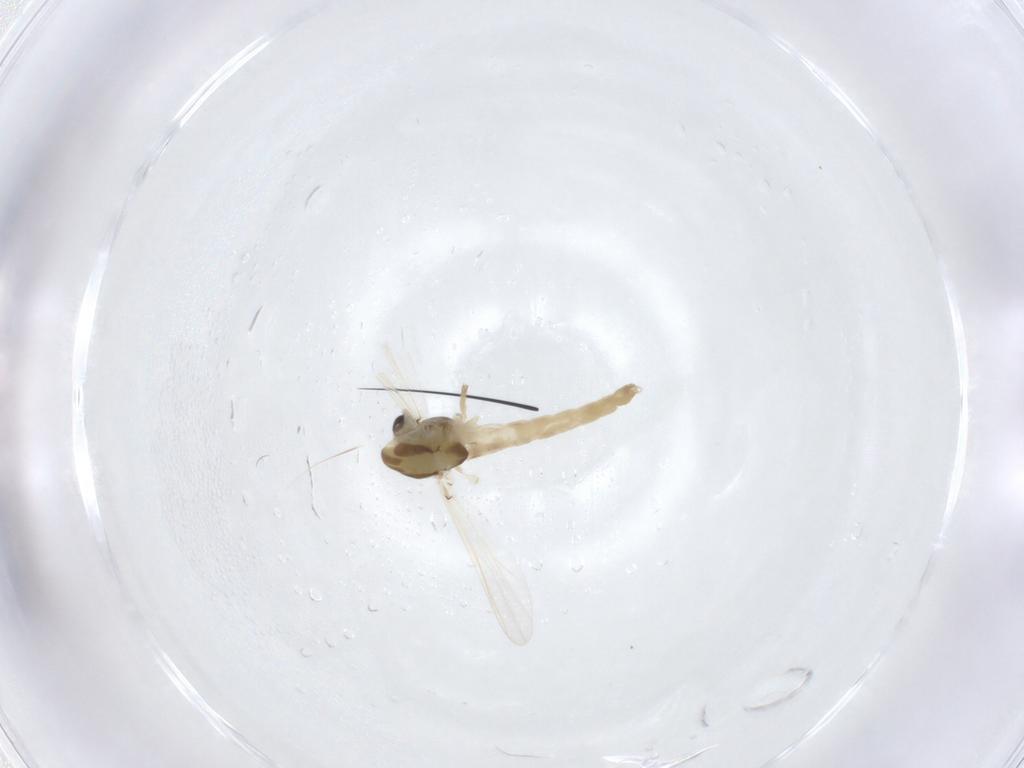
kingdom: Animalia
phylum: Arthropoda
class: Insecta
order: Diptera
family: Chironomidae
